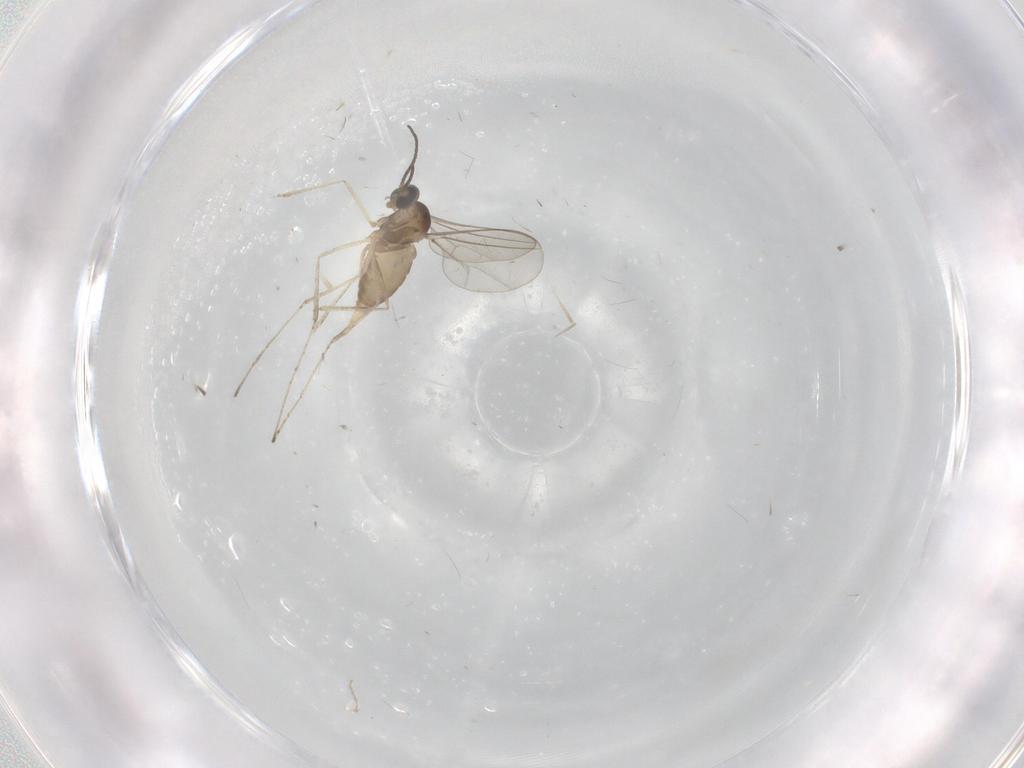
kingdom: Animalia
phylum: Arthropoda
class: Insecta
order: Diptera
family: Cecidomyiidae
